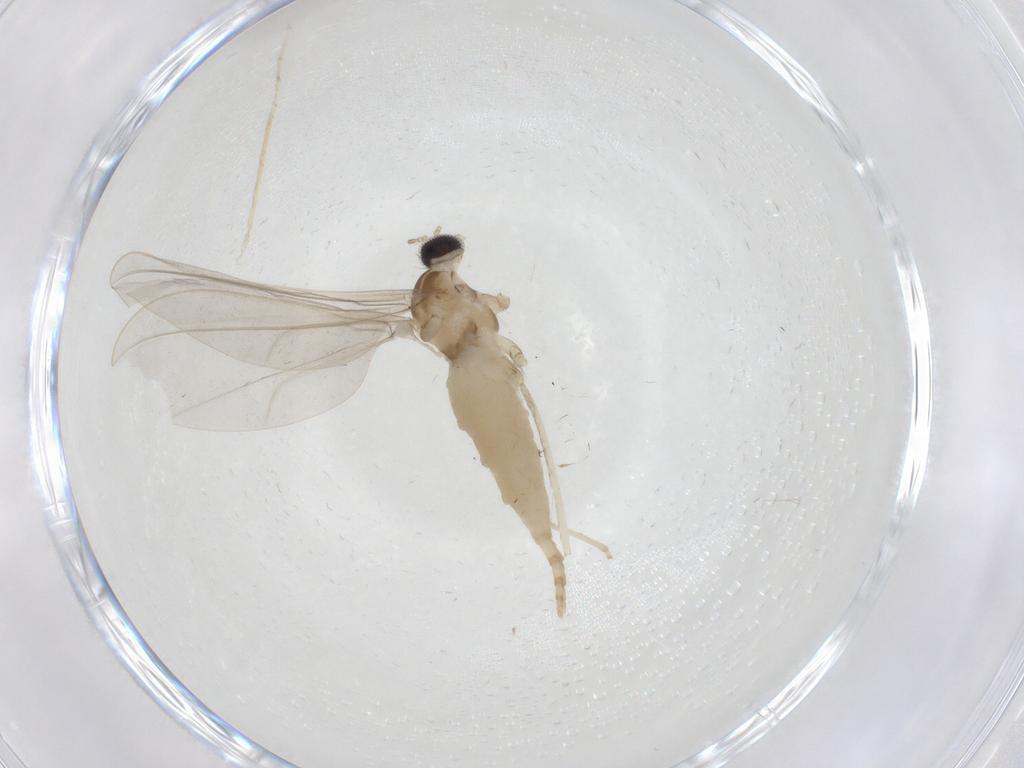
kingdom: Animalia
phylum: Arthropoda
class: Insecta
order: Diptera
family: Cecidomyiidae
